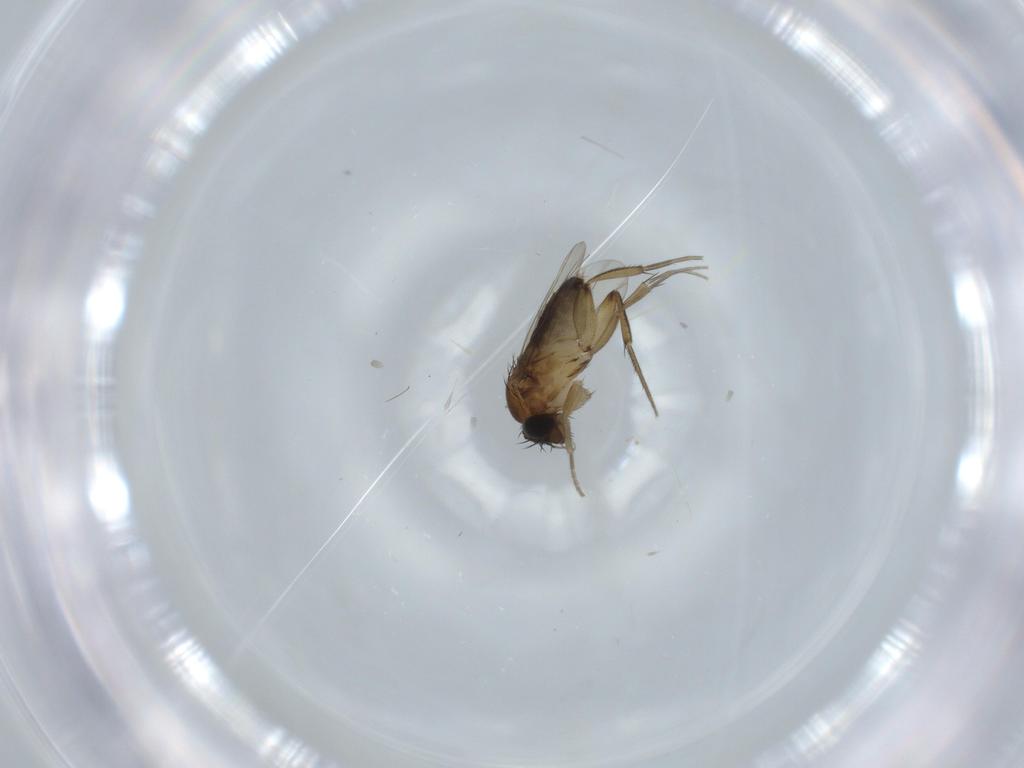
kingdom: Animalia
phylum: Arthropoda
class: Insecta
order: Diptera
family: Phoridae
